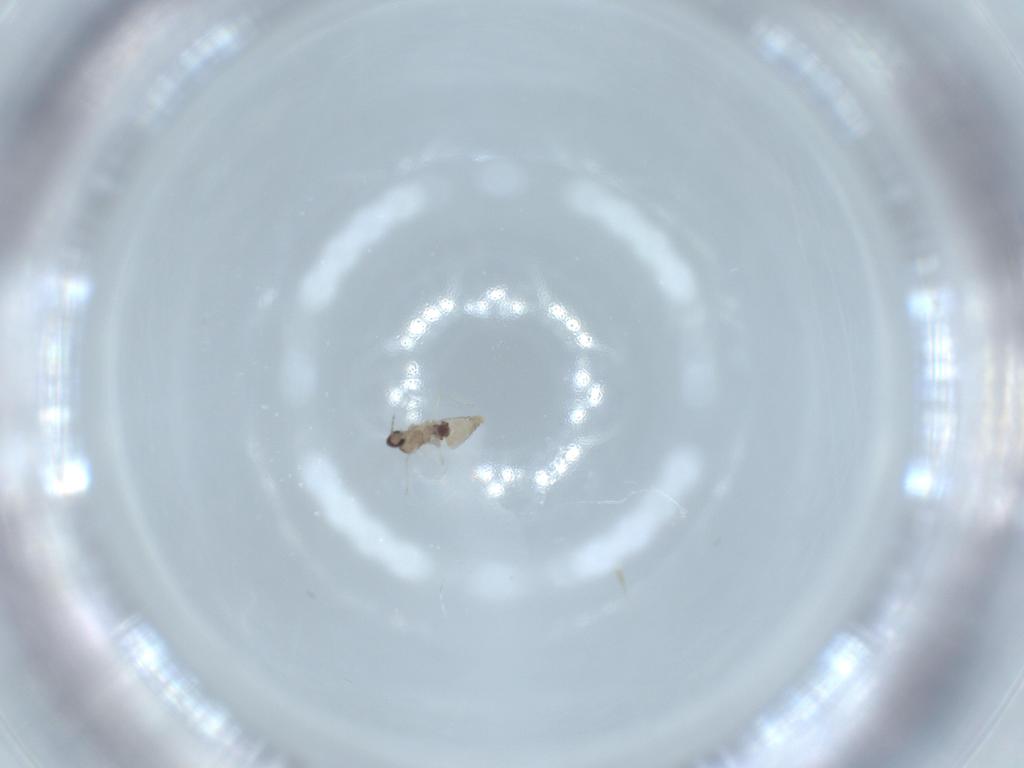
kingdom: Animalia
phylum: Arthropoda
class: Insecta
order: Diptera
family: Cecidomyiidae
